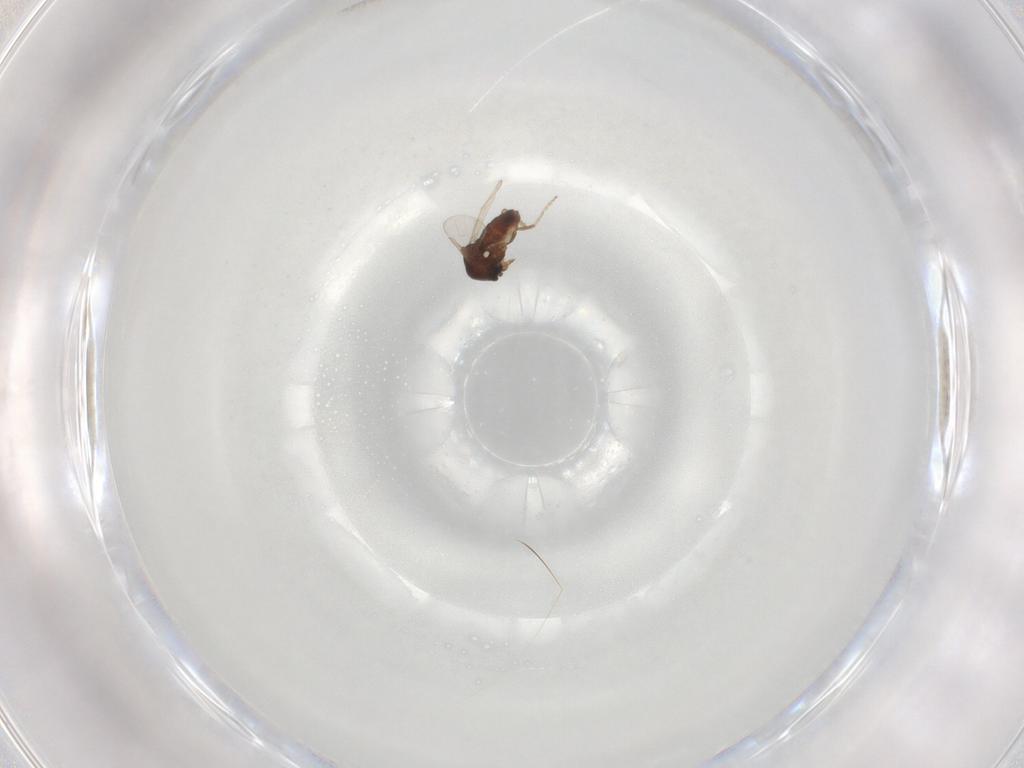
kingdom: Animalia
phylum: Arthropoda
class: Insecta
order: Diptera
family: Ceratopogonidae
